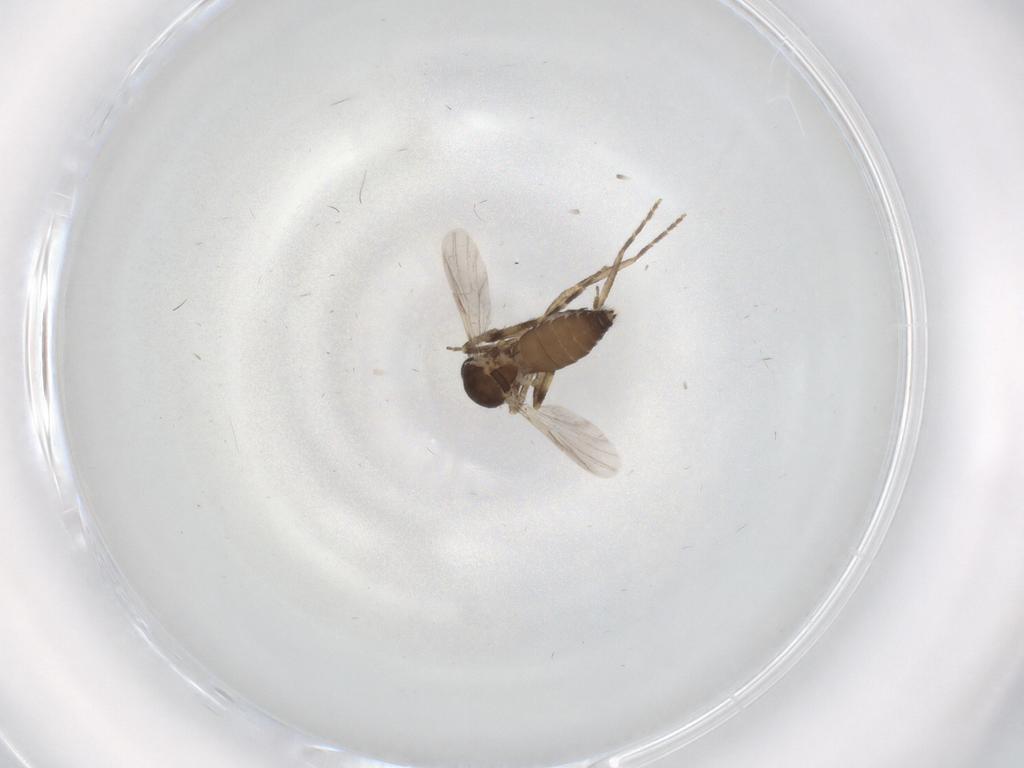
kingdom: Animalia
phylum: Arthropoda
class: Insecta
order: Diptera
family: Ceratopogonidae
